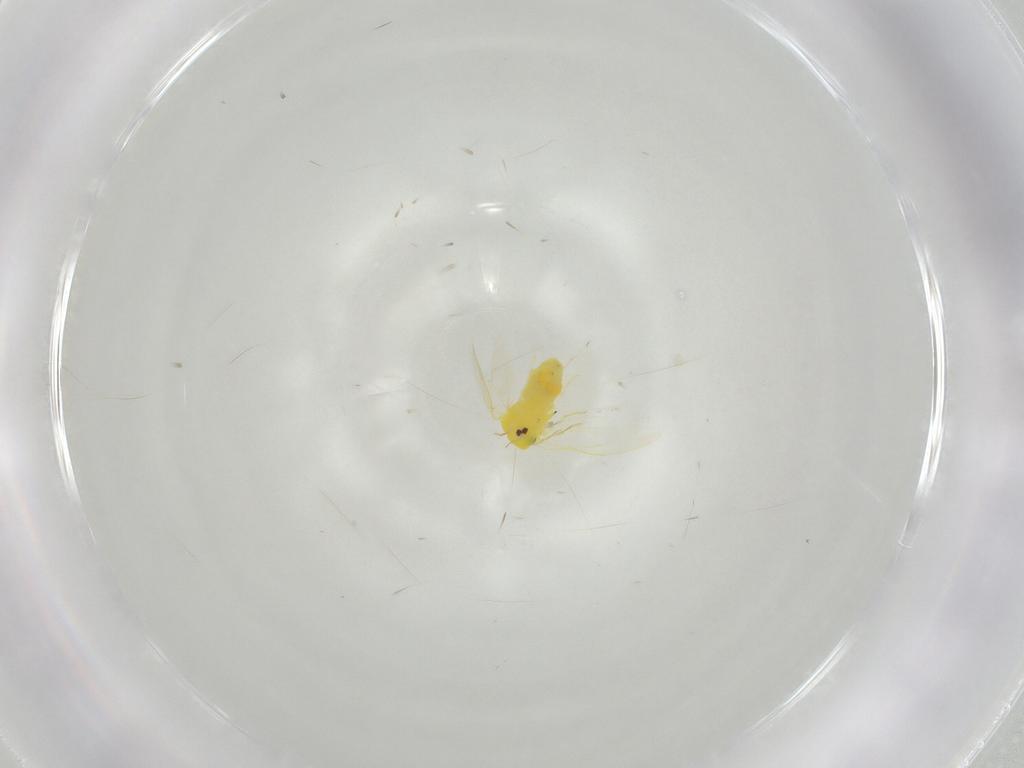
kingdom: Animalia
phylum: Arthropoda
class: Insecta
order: Hemiptera
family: Aleyrodidae
